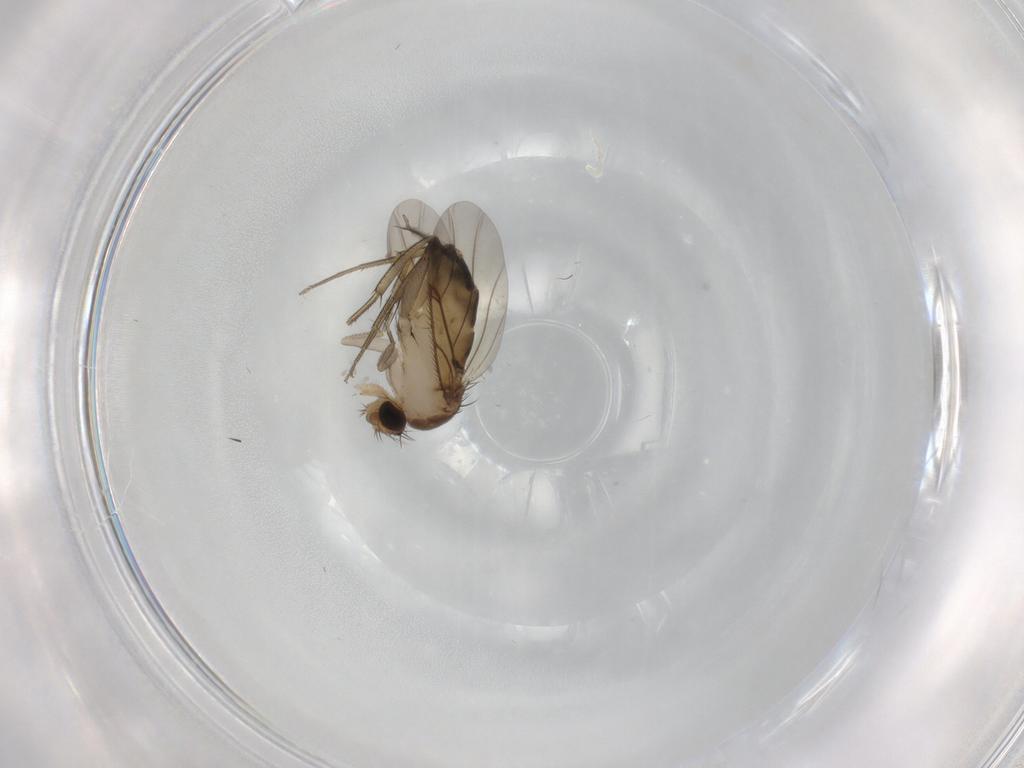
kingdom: Animalia
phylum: Arthropoda
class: Insecta
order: Diptera
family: Phoridae
